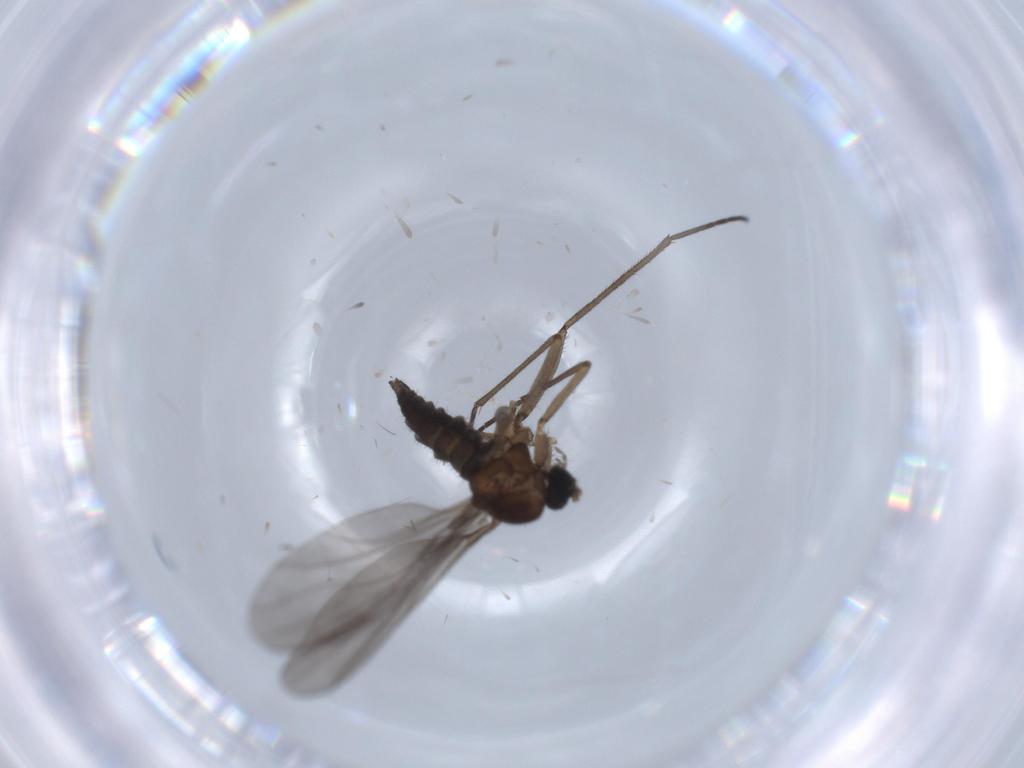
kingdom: Animalia
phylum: Arthropoda
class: Insecta
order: Diptera
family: Sciaridae
